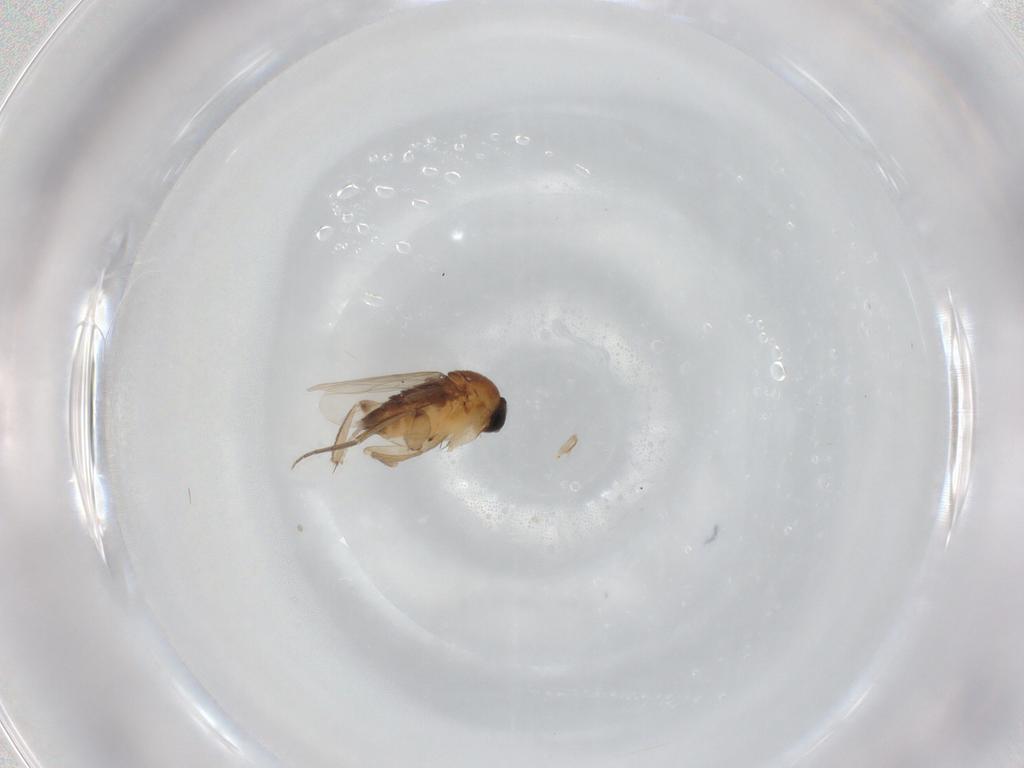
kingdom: Animalia
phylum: Arthropoda
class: Insecta
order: Diptera
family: Phoridae
